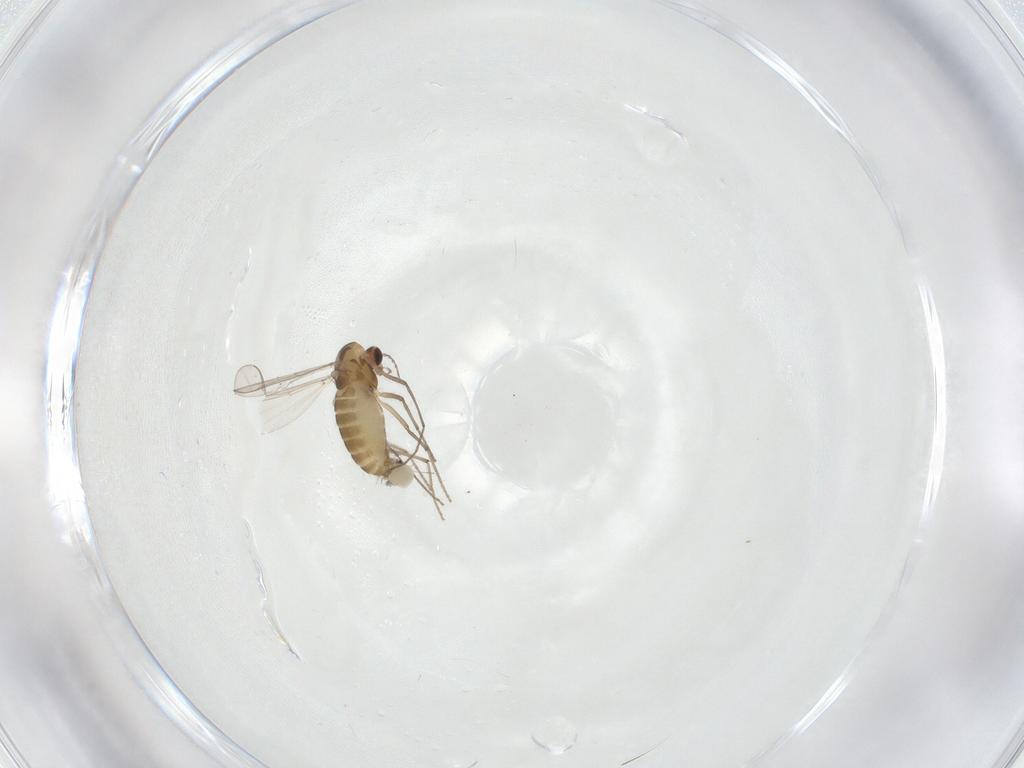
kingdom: Animalia
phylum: Arthropoda
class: Insecta
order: Diptera
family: Chironomidae
